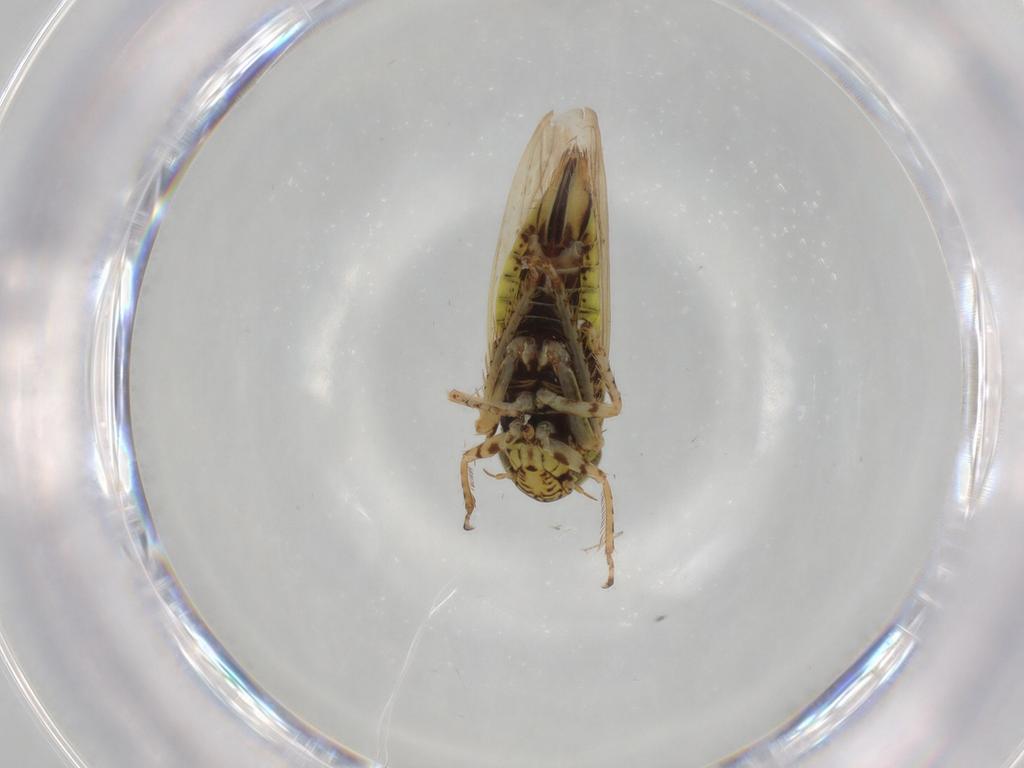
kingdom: Animalia
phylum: Arthropoda
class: Insecta
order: Hemiptera
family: Cicadellidae
